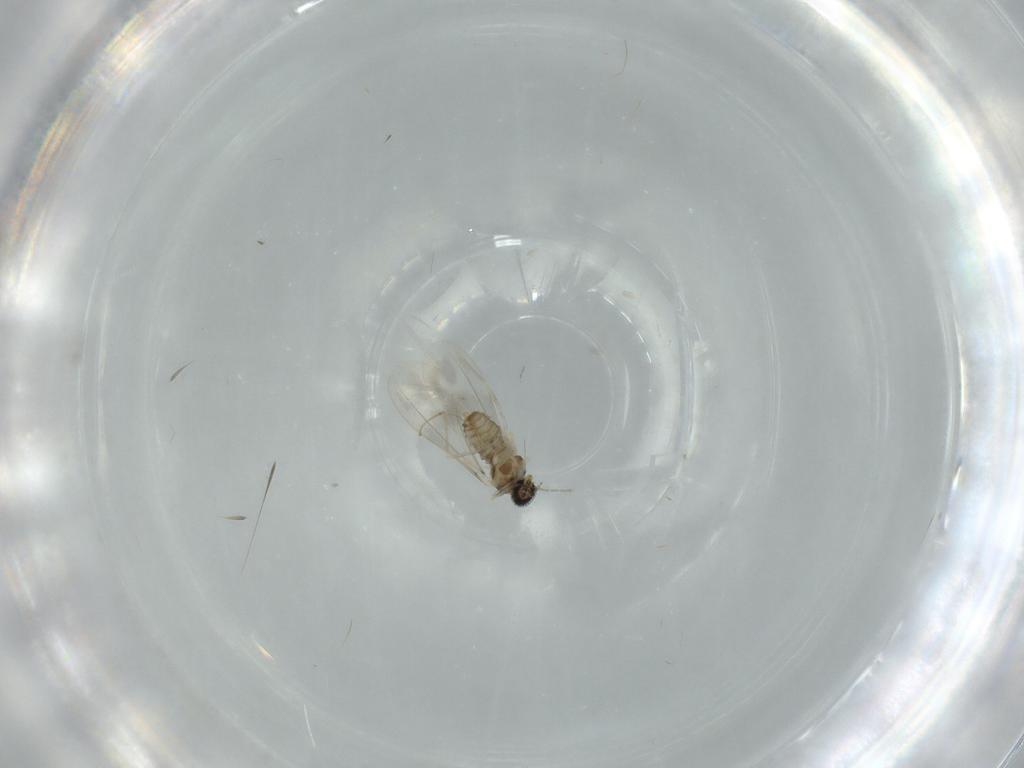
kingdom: Animalia
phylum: Arthropoda
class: Insecta
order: Diptera
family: Cecidomyiidae
